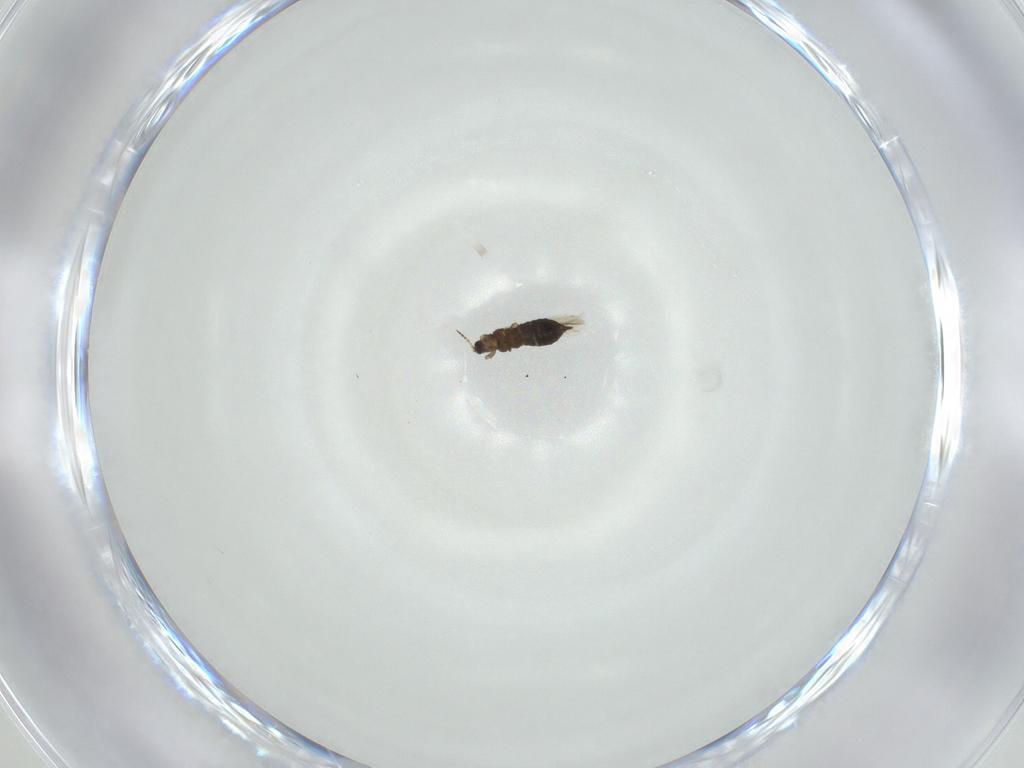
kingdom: Animalia
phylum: Arthropoda
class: Insecta
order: Thysanoptera
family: Heterothripidae
